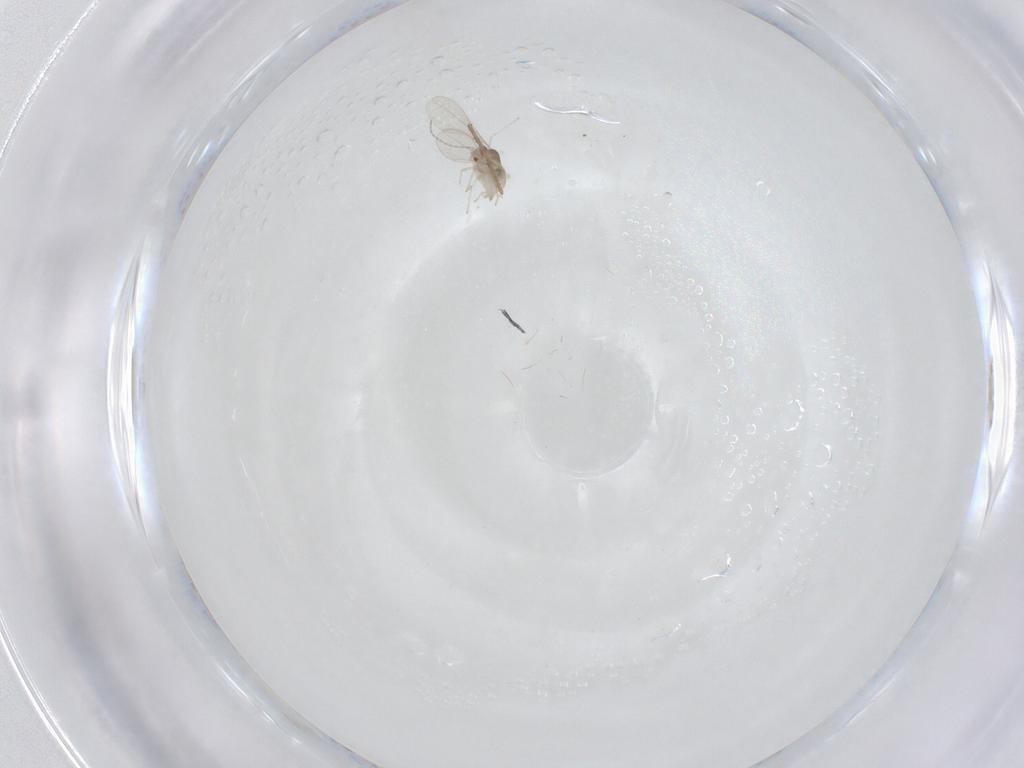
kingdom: Animalia
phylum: Arthropoda
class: Insecta
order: Diptera
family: Cecidomyiidae
